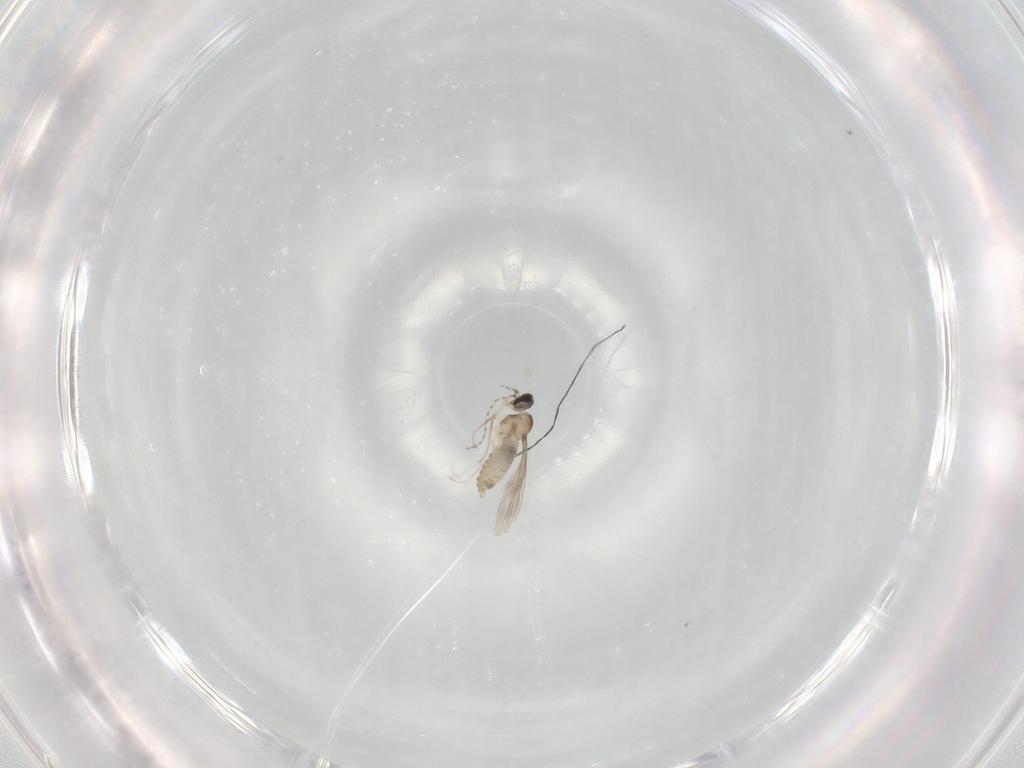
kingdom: Animalia
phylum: Arthropoda
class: Insecta
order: Diptera
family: Cecidomyiidae
